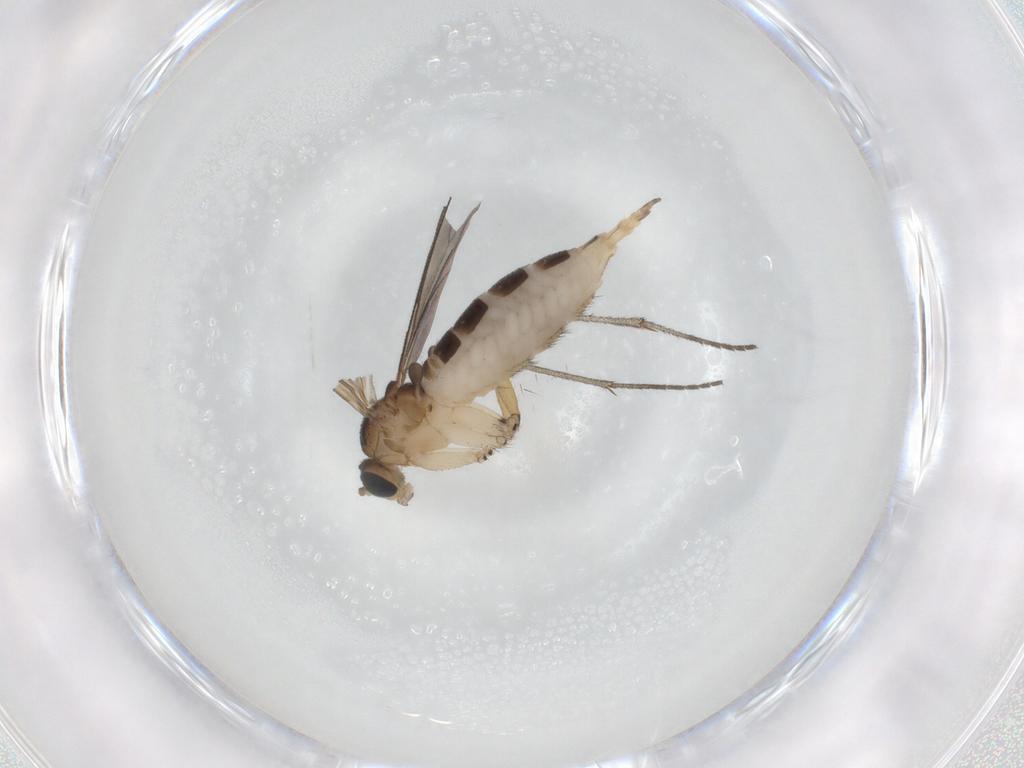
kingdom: Animalia
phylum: Arthropoda
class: Insecta
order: Diptera
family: Sciaridae
